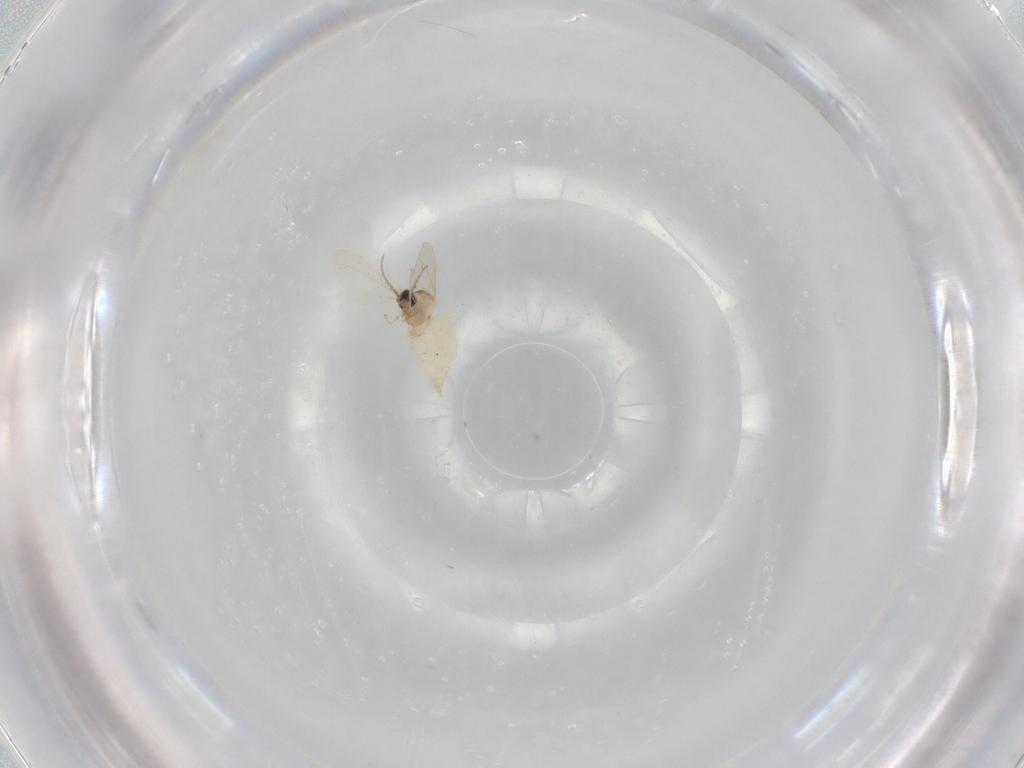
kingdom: Animalia
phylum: Arthropoda
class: Insecta
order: Diptera
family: Cecidomyiidae
